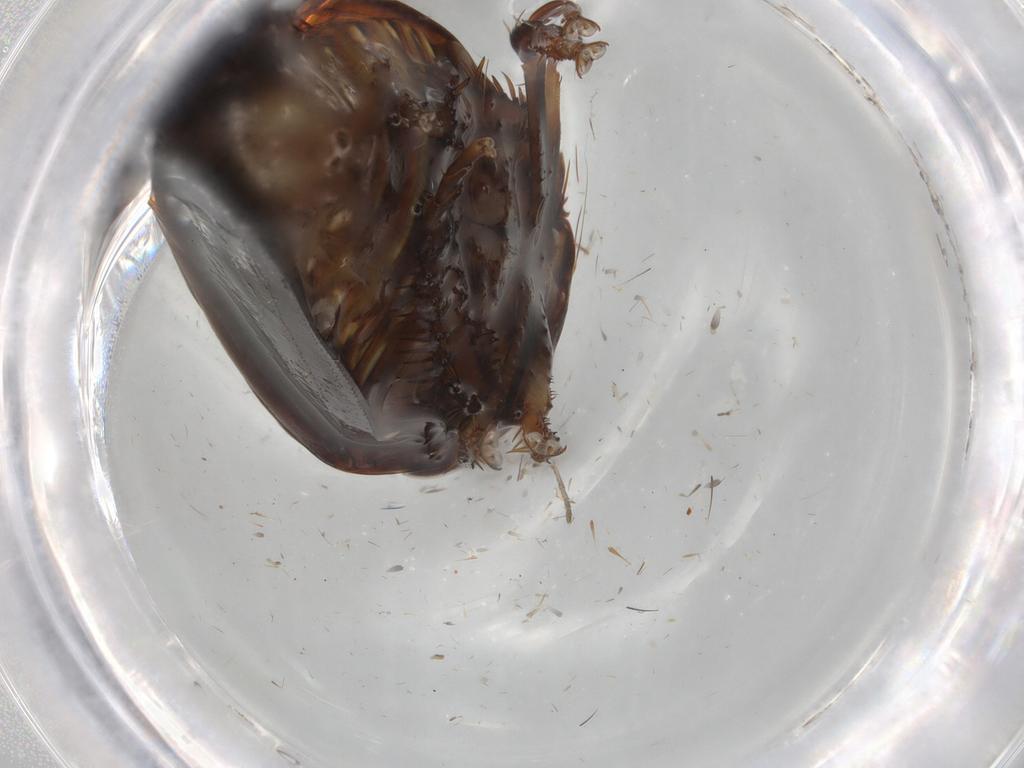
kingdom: Animalia
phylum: Arthropoda
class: Insecta
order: Hemiptera
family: Cicadellidae
